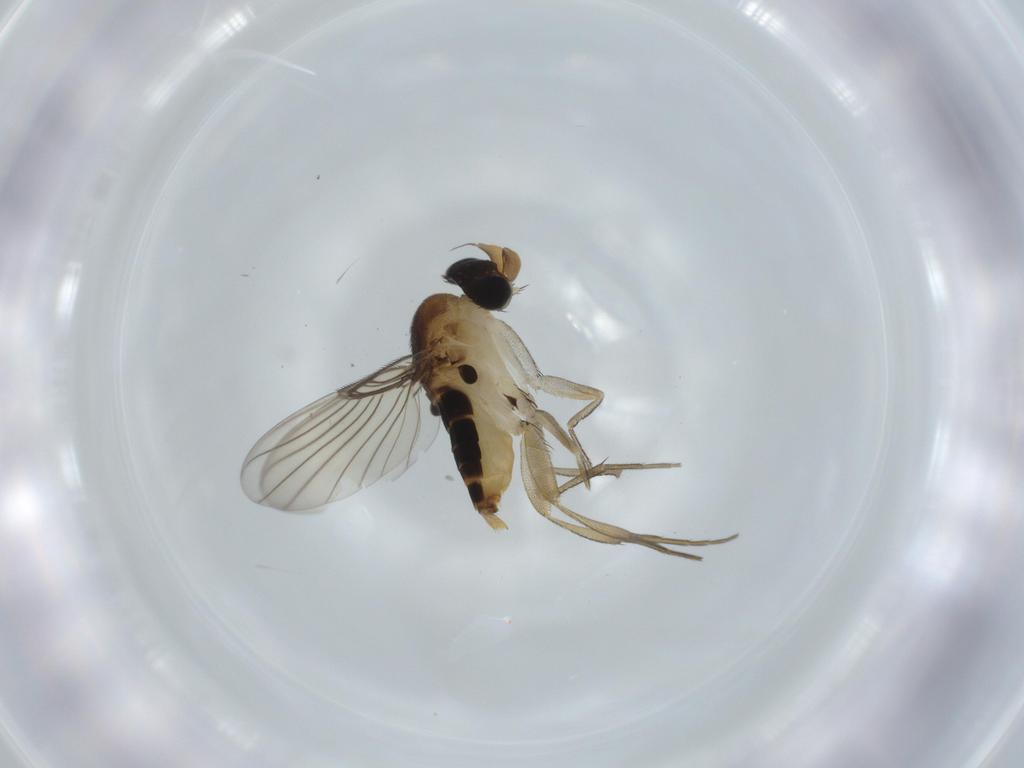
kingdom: Animalia
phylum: Arthropoda
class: Insecta
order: Diptera
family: Phoridae
